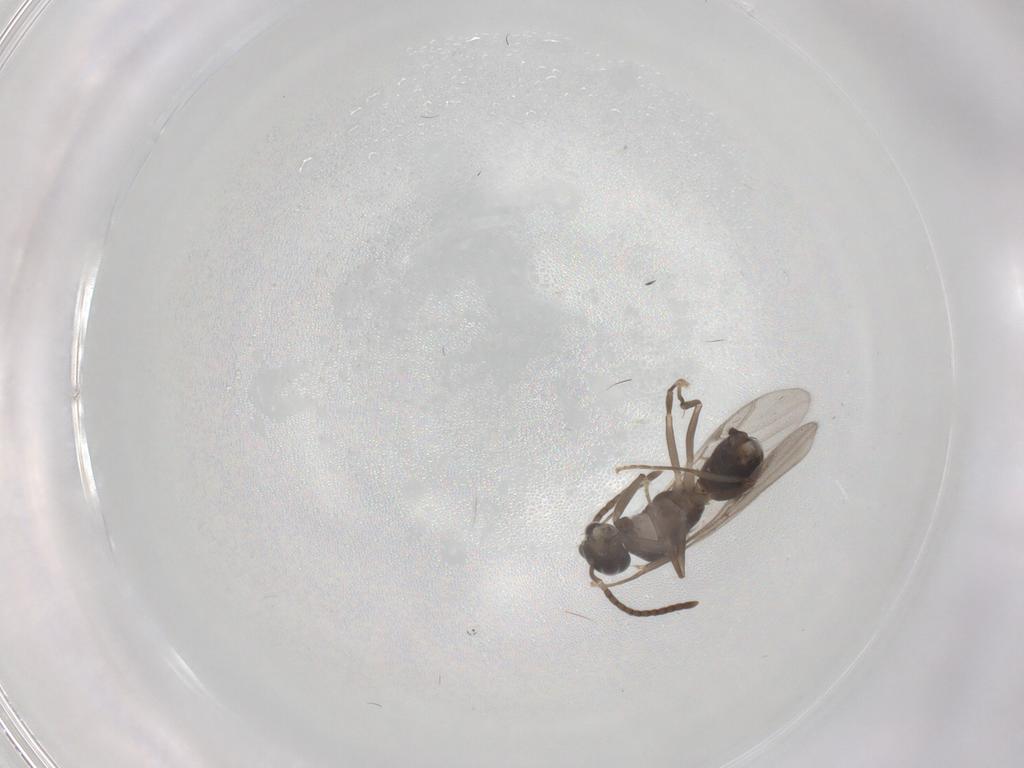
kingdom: Animalia
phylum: Arthropoda
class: Insecta
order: Hymenoptera
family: Formicidae
